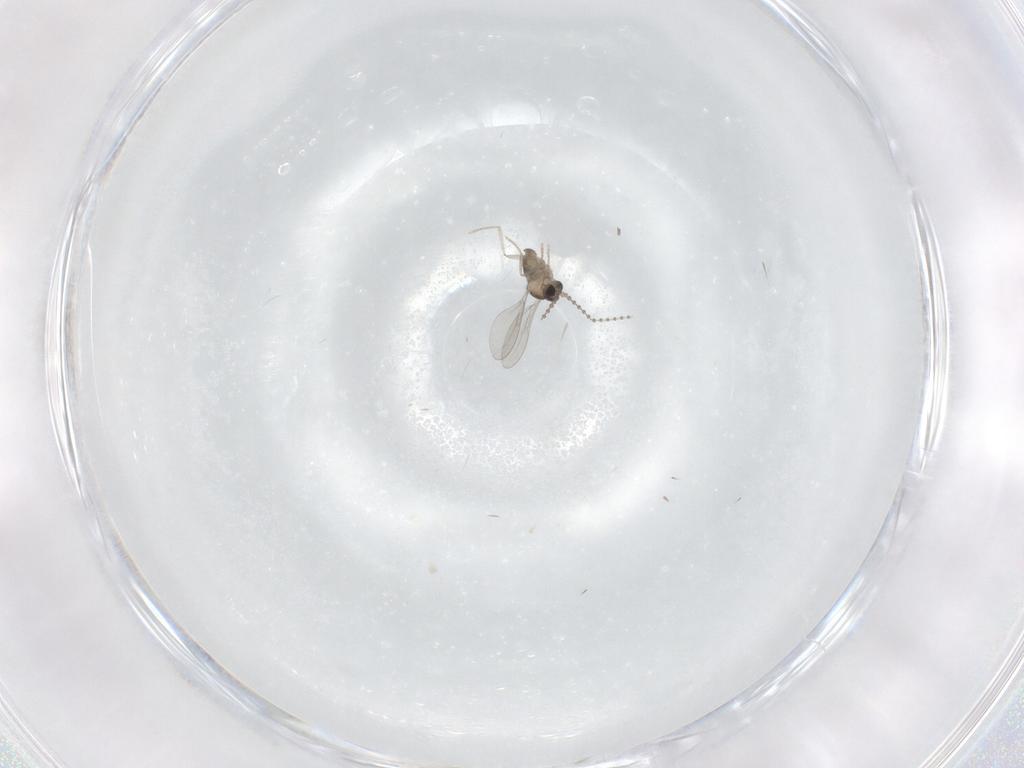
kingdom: Animalia
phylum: Arthropoda
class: Insecta
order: Diptera
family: Cecidomyiidae
